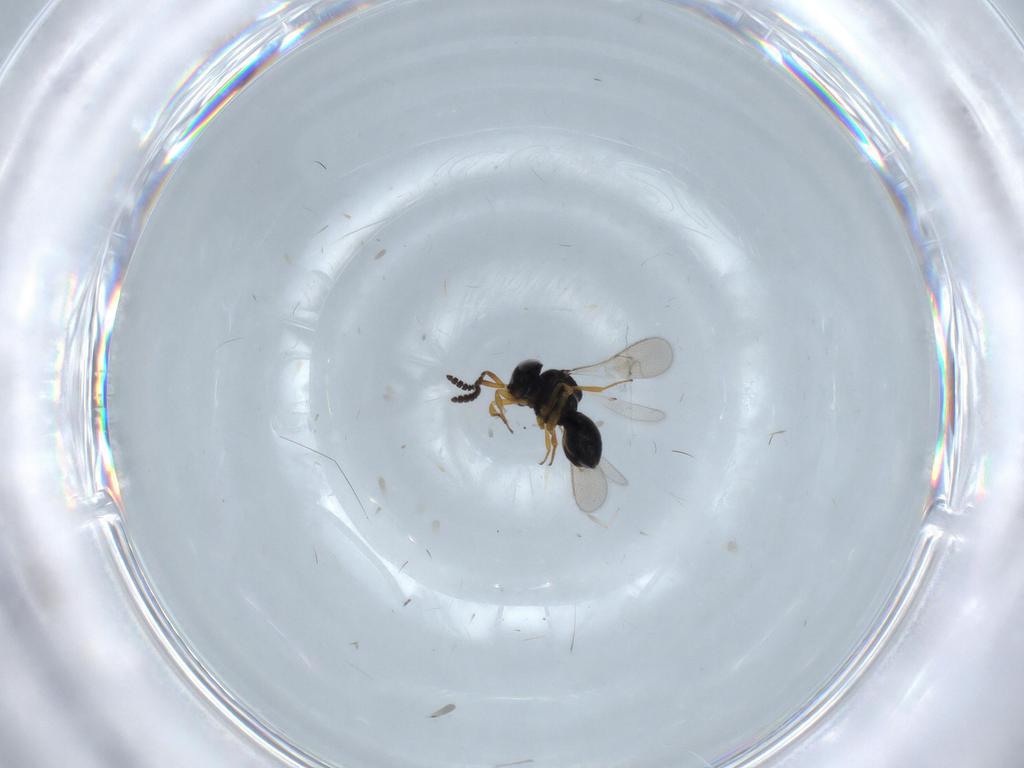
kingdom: Animalia
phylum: Arthropoda
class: Insecta
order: Hymenoptera
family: Scelionidae
